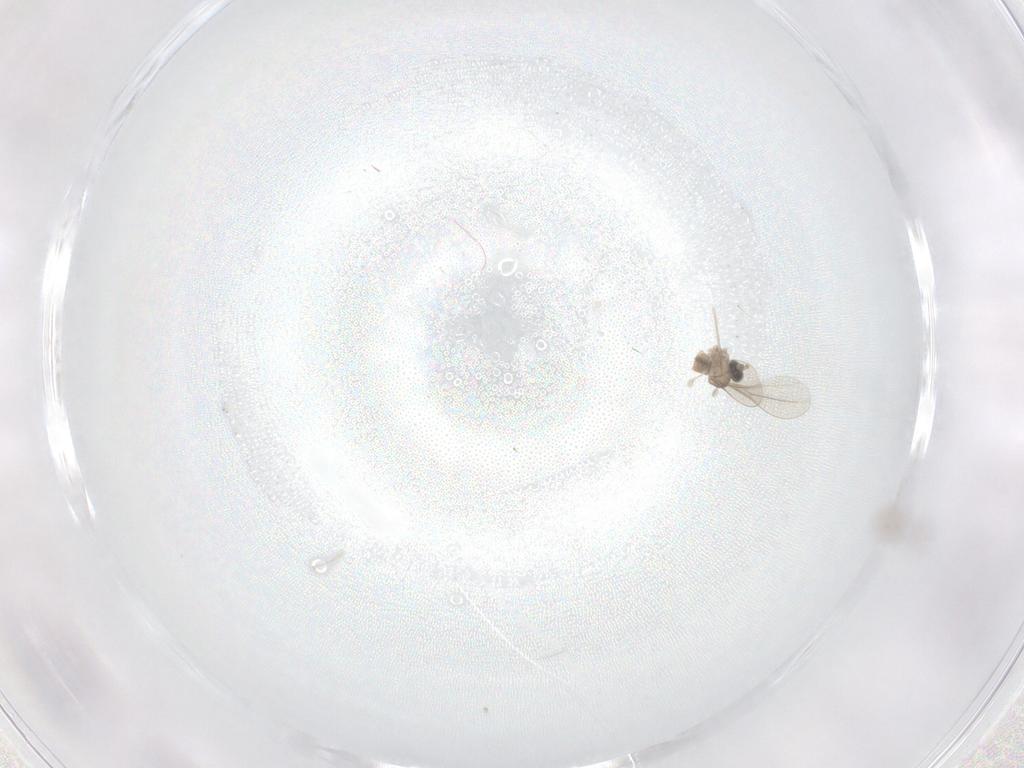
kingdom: Animalia
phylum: Arthropoda
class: Insecta
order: Diptera
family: Cecidomyiidae
